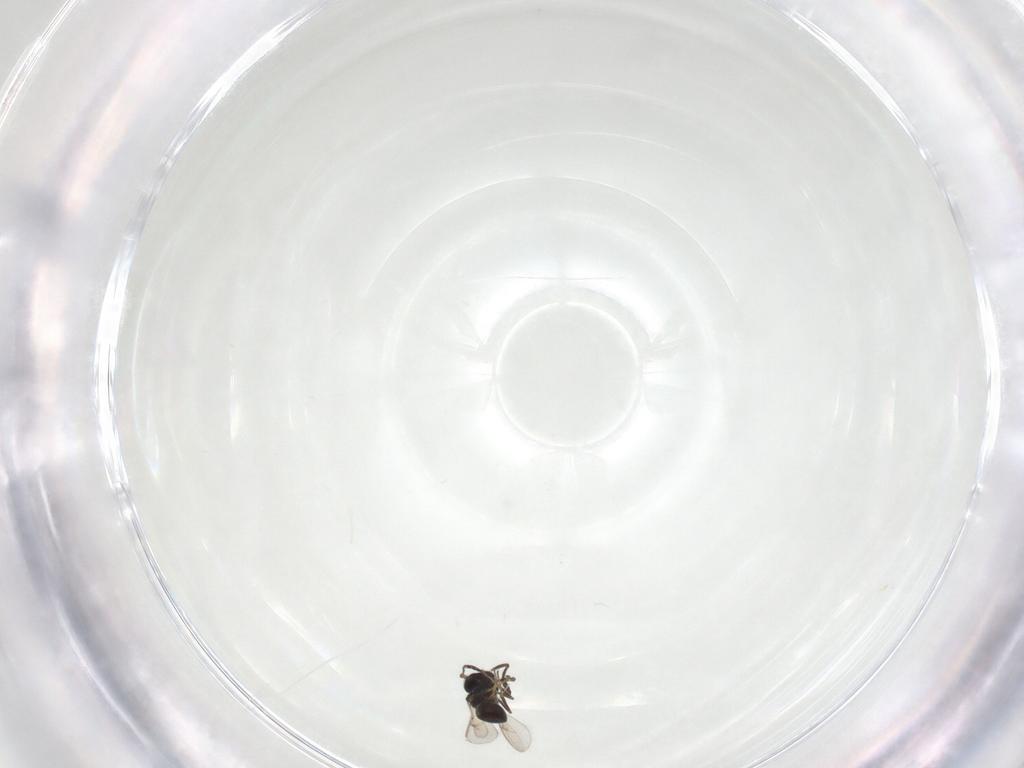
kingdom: Animalia
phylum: Arthropoda
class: Insecta
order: Hymenoptera
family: Scelionidae
